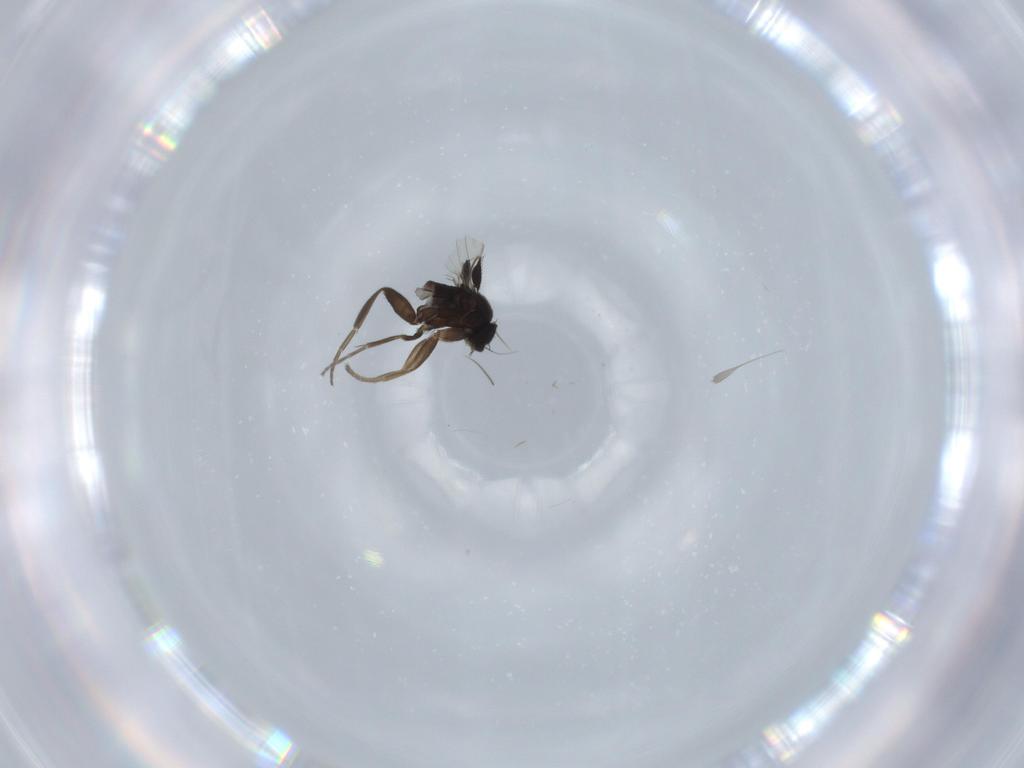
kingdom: Animalia
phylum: Arthropoda
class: Insecta
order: Diptera
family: Phoridae
